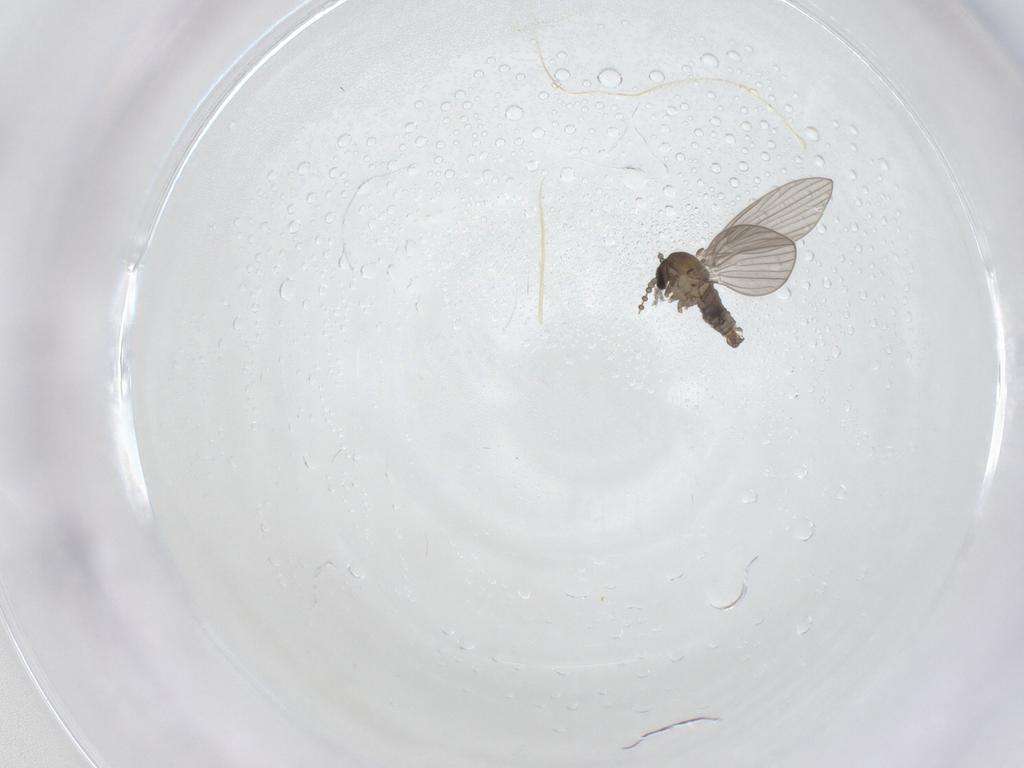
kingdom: Animalia
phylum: Arthropoda
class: Insecta
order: Diptera
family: Psychodidae
